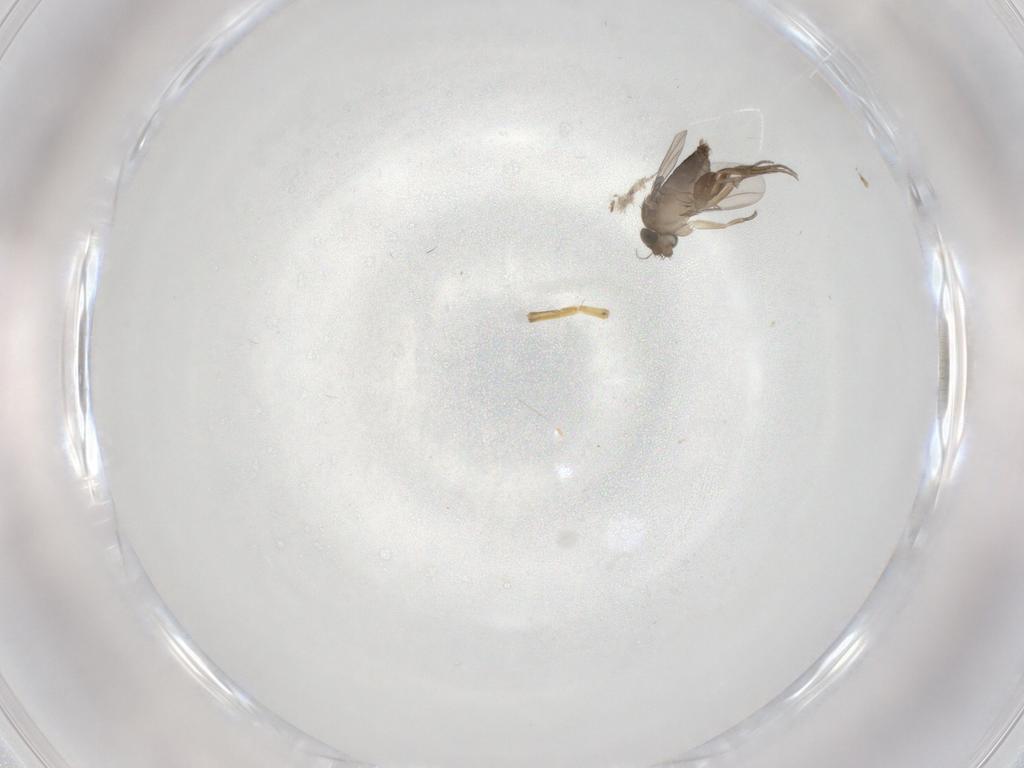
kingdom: Animalia
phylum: Arthropoda
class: Insecta
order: Diptera
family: Phoridae
